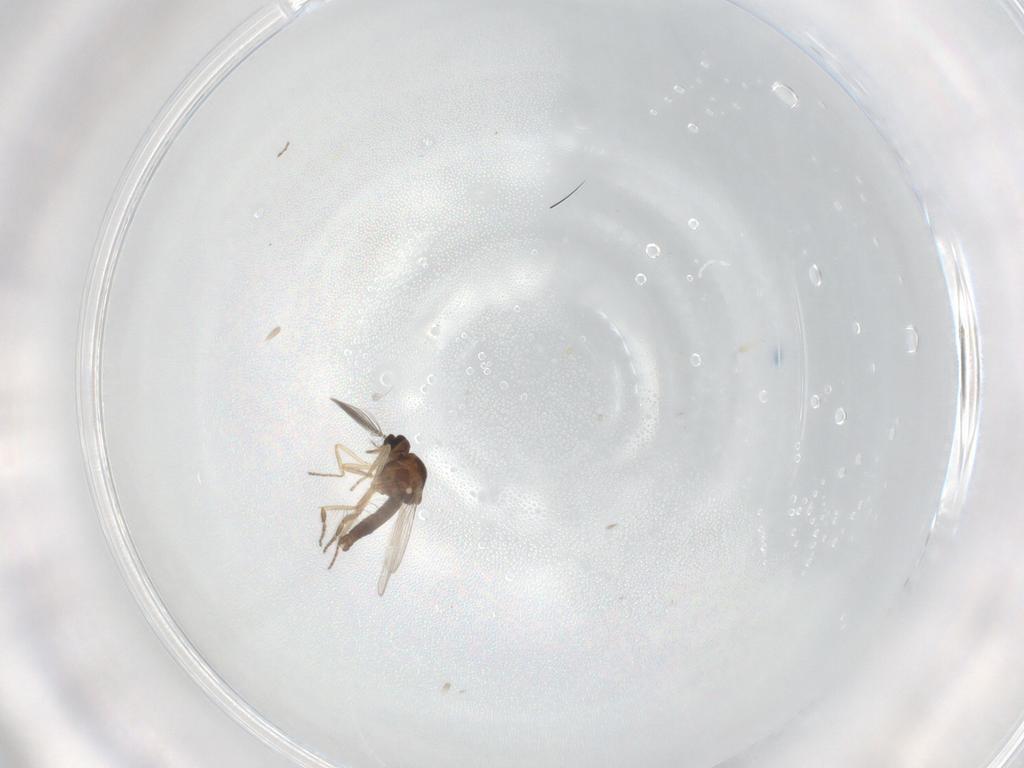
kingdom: Animalia
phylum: Arthropoda
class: Insecta
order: Diptera
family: Ceratopogonidae
